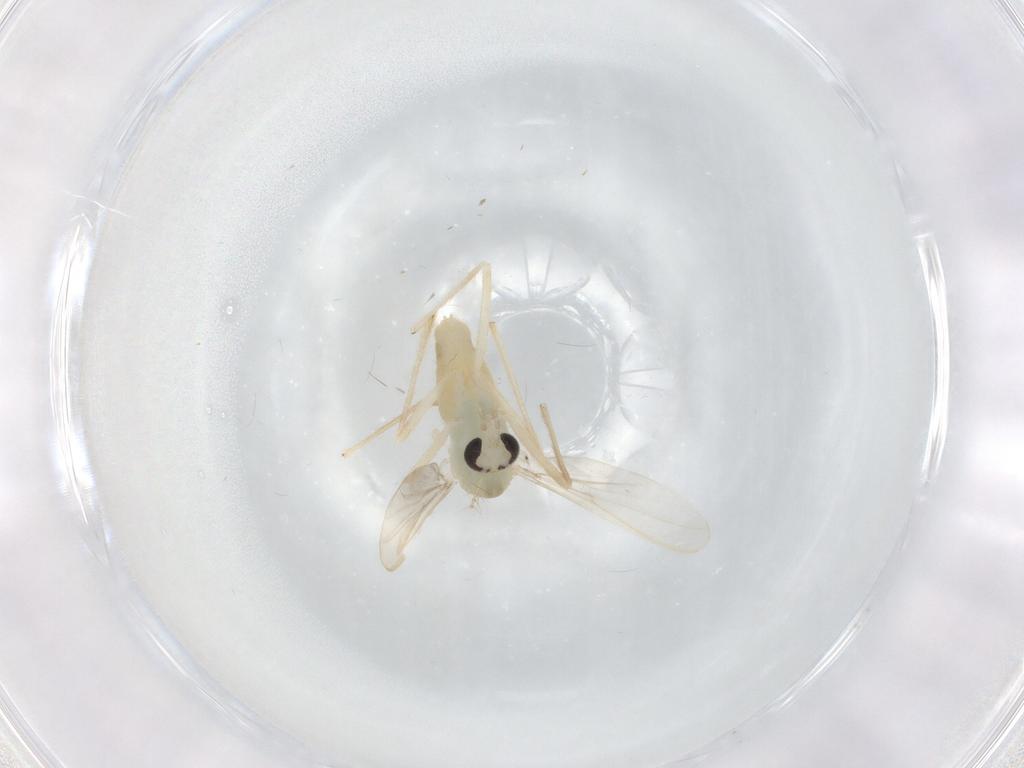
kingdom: Animalia
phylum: Arthropoda
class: Insecta
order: Diptera
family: Chironomidae
